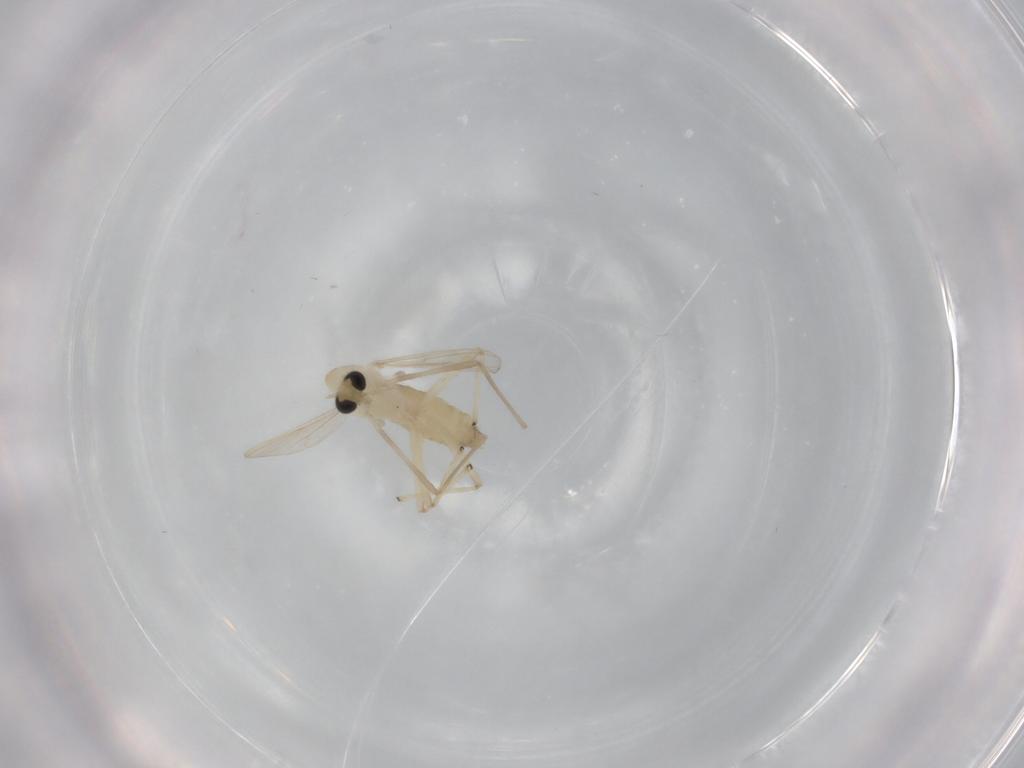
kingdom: Animalia
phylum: Arthropoda
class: Insecta
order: Diptera
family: Chironomidae
